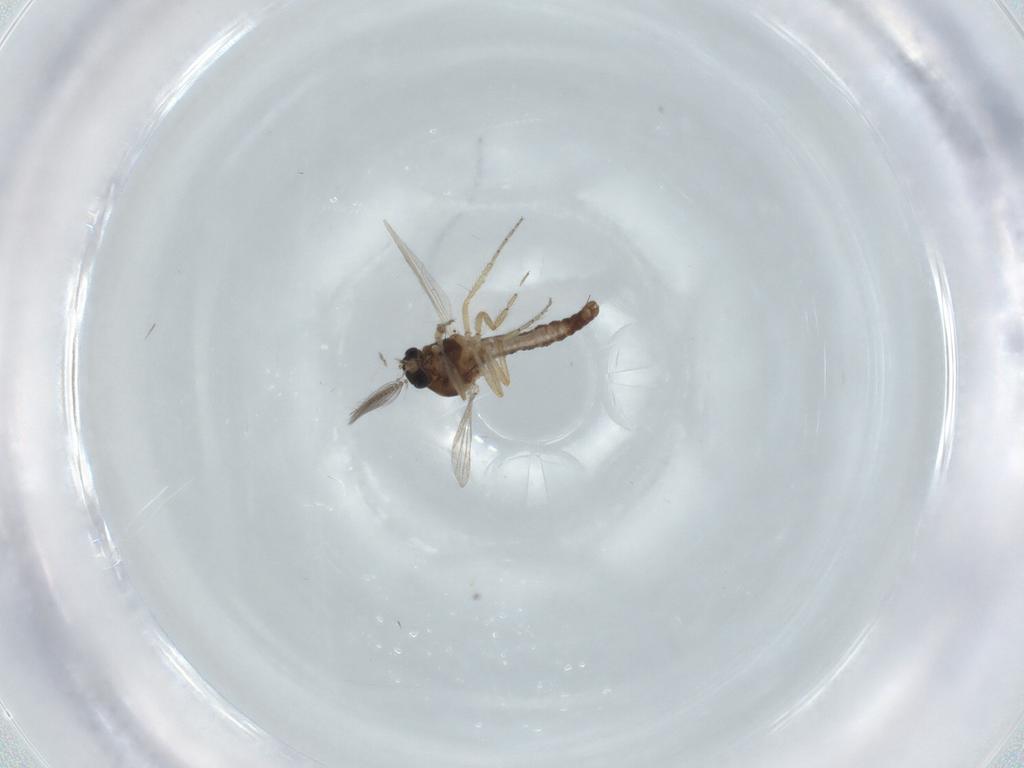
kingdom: Animalia
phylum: Arthropoda
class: Insecta
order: Diptera
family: Ceratopogonidae
